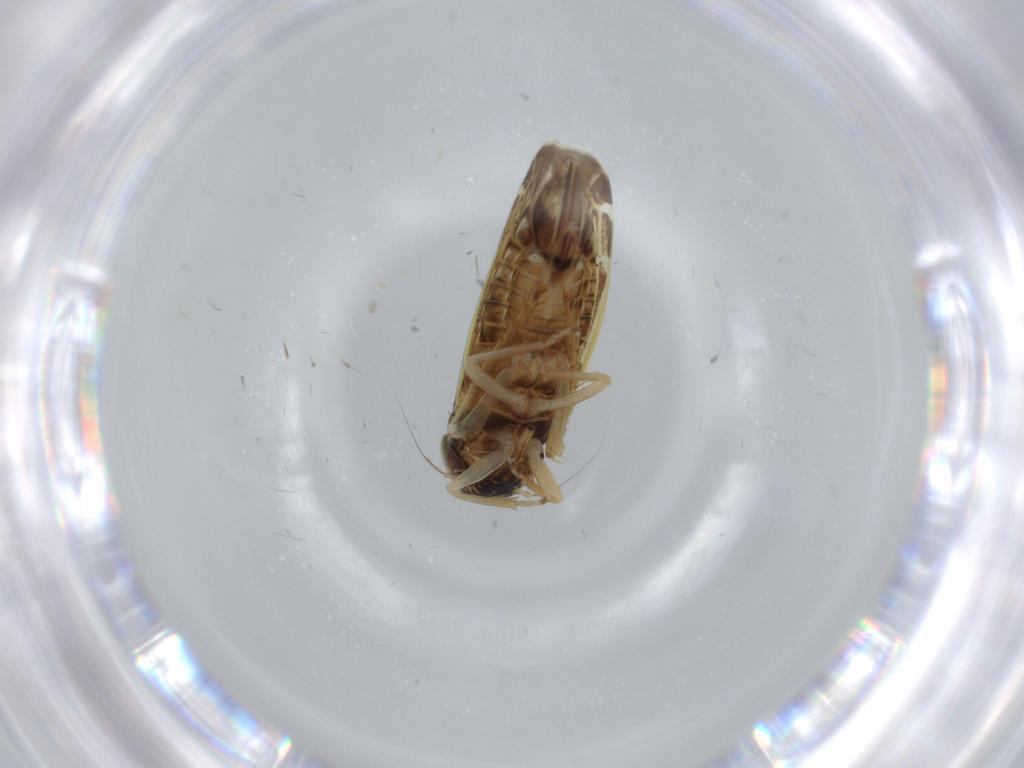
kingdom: Animalia
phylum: Arthropoda
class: Insecta
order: Hemiptera
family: Cicadellidae
